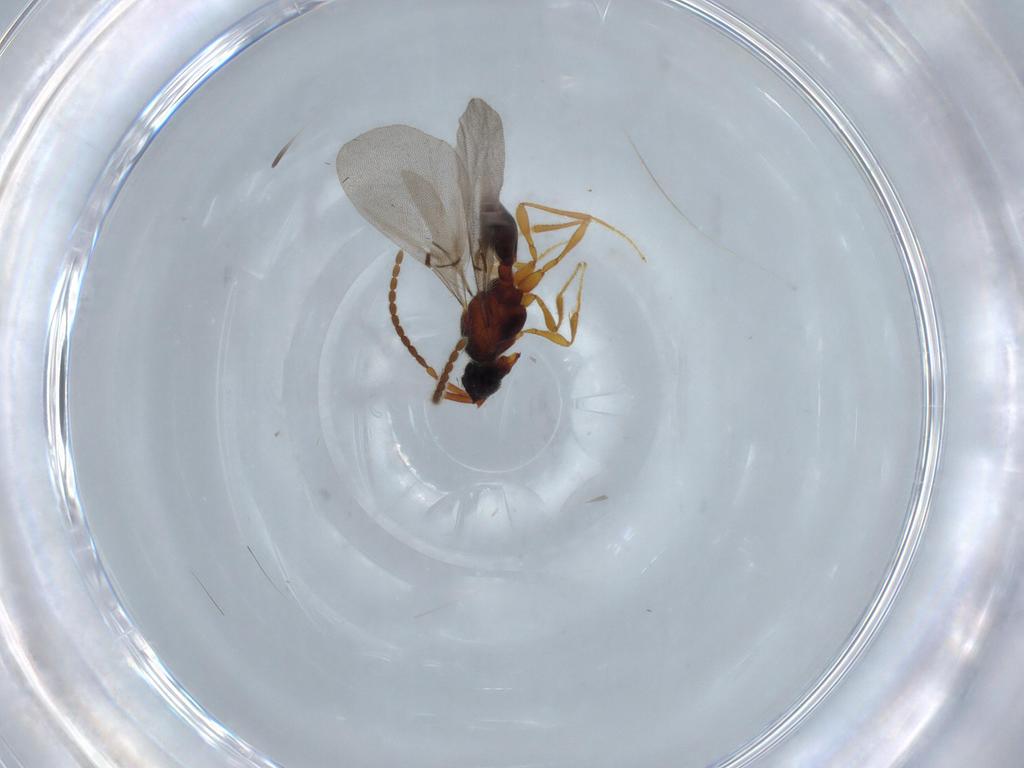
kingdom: Animalia
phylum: Arthropoda
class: Insecta
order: Hymenoptera
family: Diapriidae
